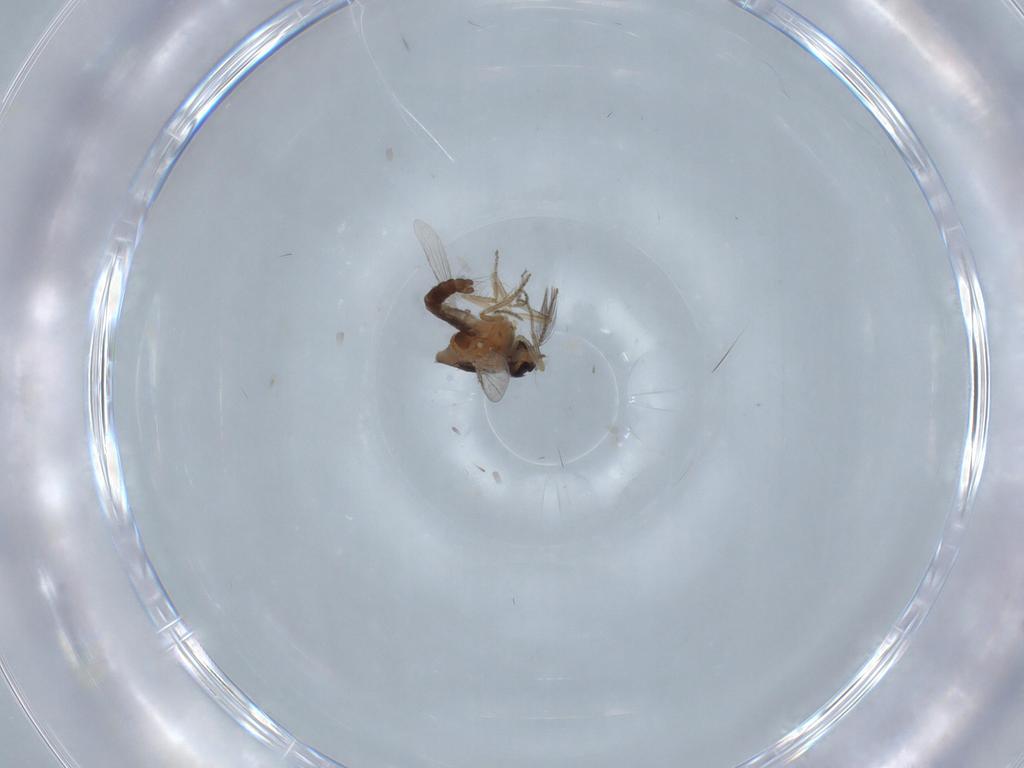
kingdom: Animalia
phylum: Arthropoda
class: Insecta
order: Diptera
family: Ceratopogonidae
